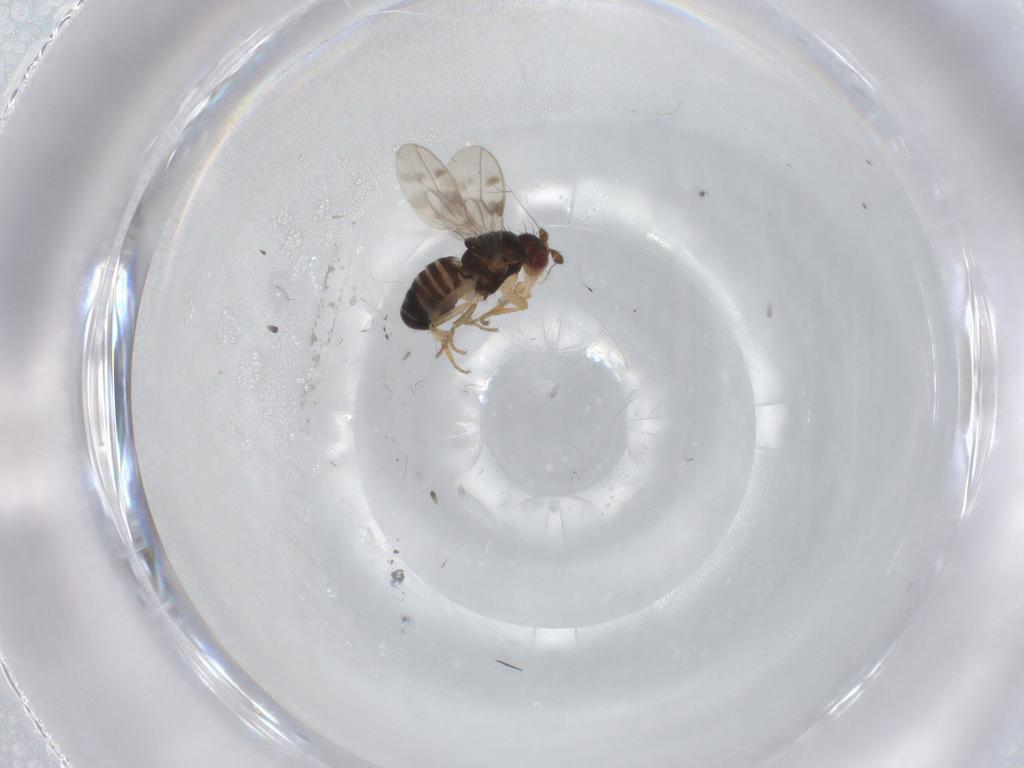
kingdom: Animalia
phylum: Arthropoda
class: Insecta
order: Diptera
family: Sphaeroceridae
